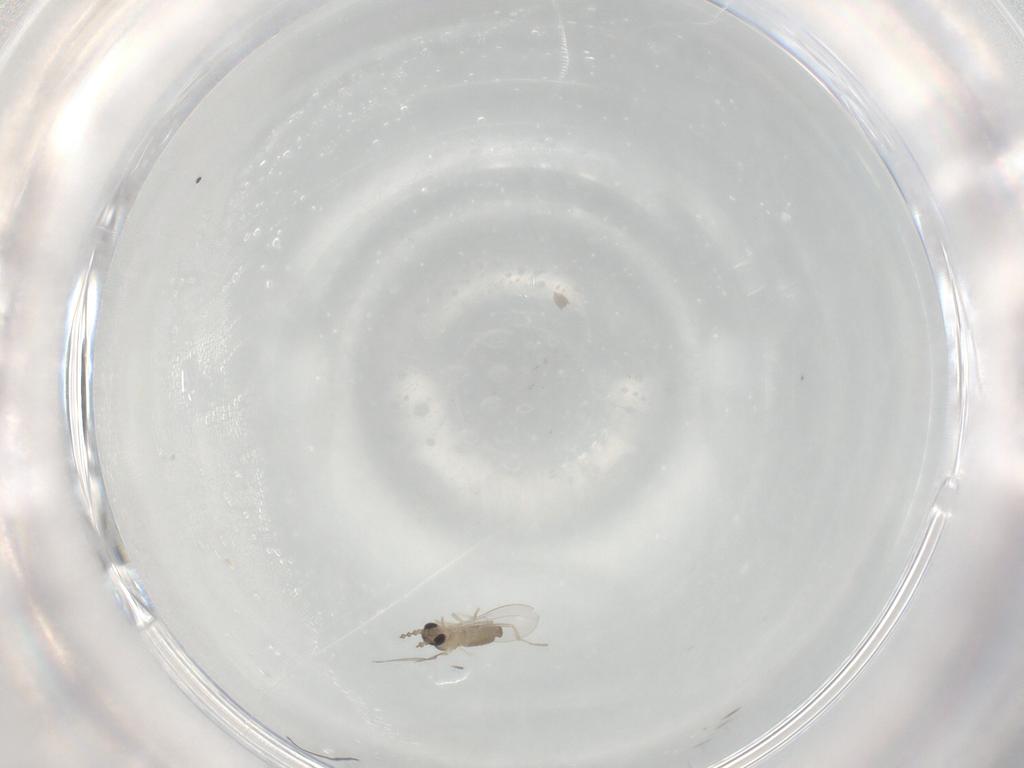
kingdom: Animalia
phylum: Arthropoda
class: Insecta
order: Diptera
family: Cecidomyiidae
